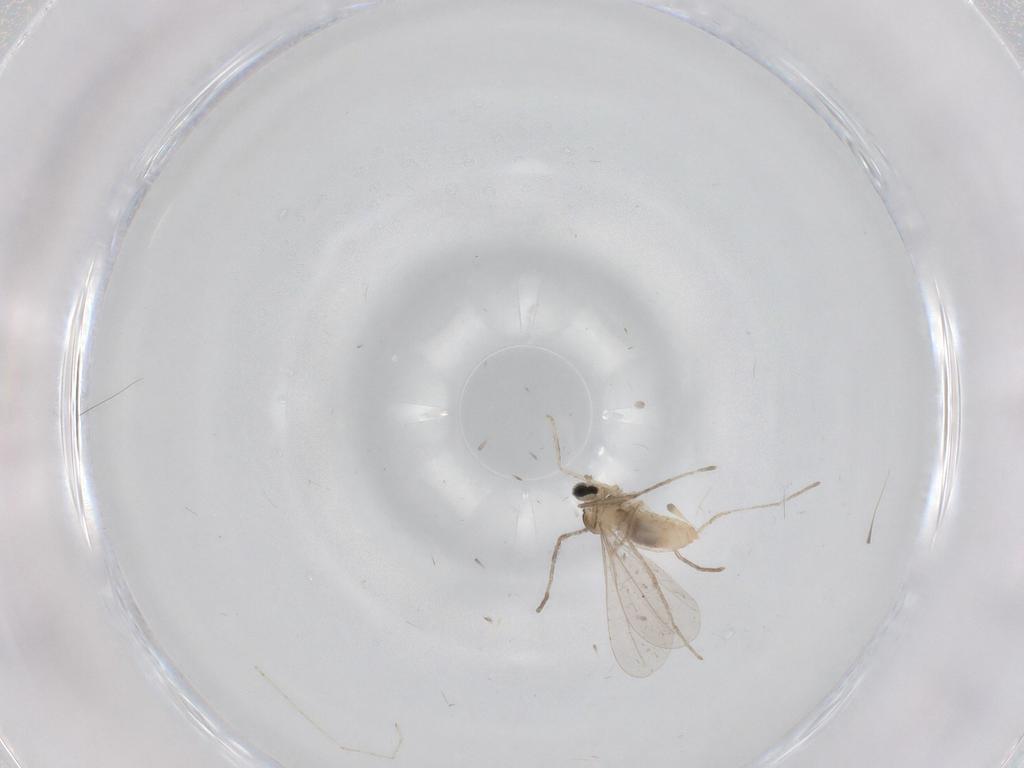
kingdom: Animalia
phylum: Arthropoda
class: Insecta
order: Diptera
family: Cecidomyiidae
